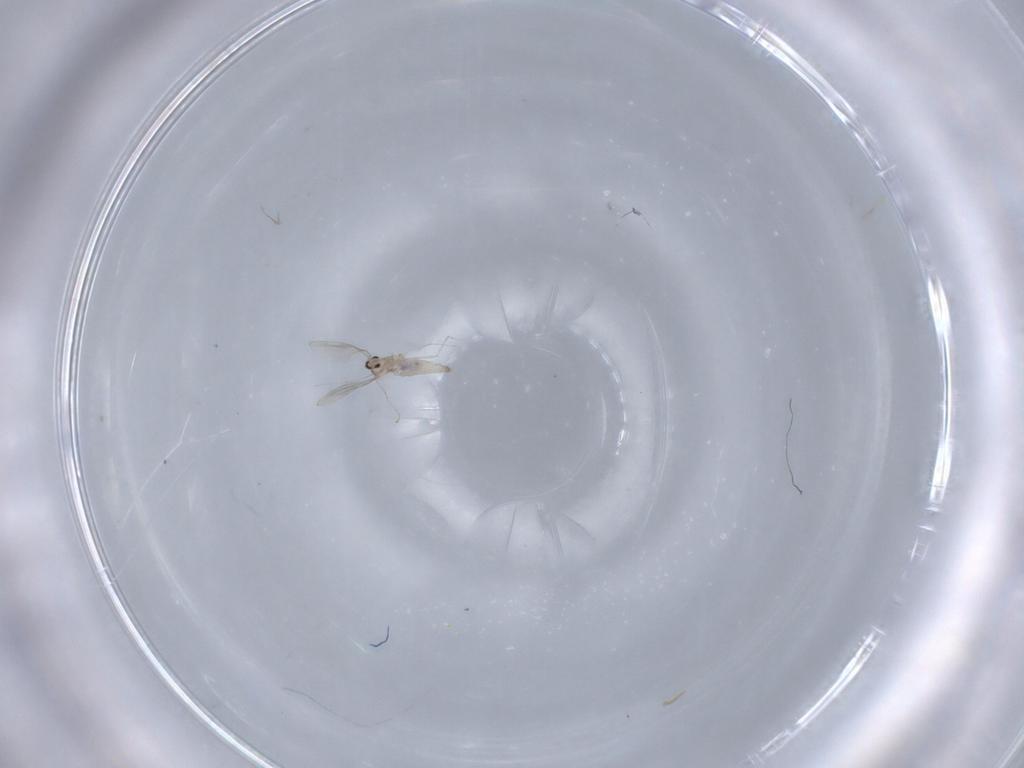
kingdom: Animalia
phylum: Arthropoda
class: Insecta
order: Diptera
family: Cecidomyiidae
